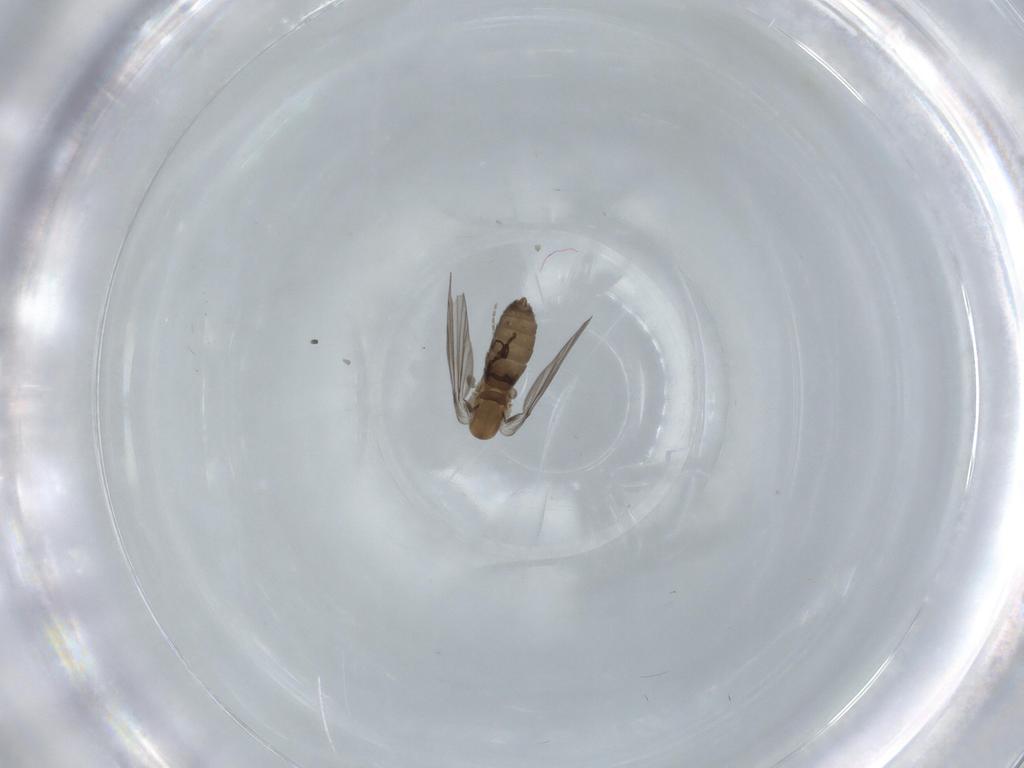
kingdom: Animalia
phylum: Arthropoda
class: Insecta
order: Diptera
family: Psychodidae
